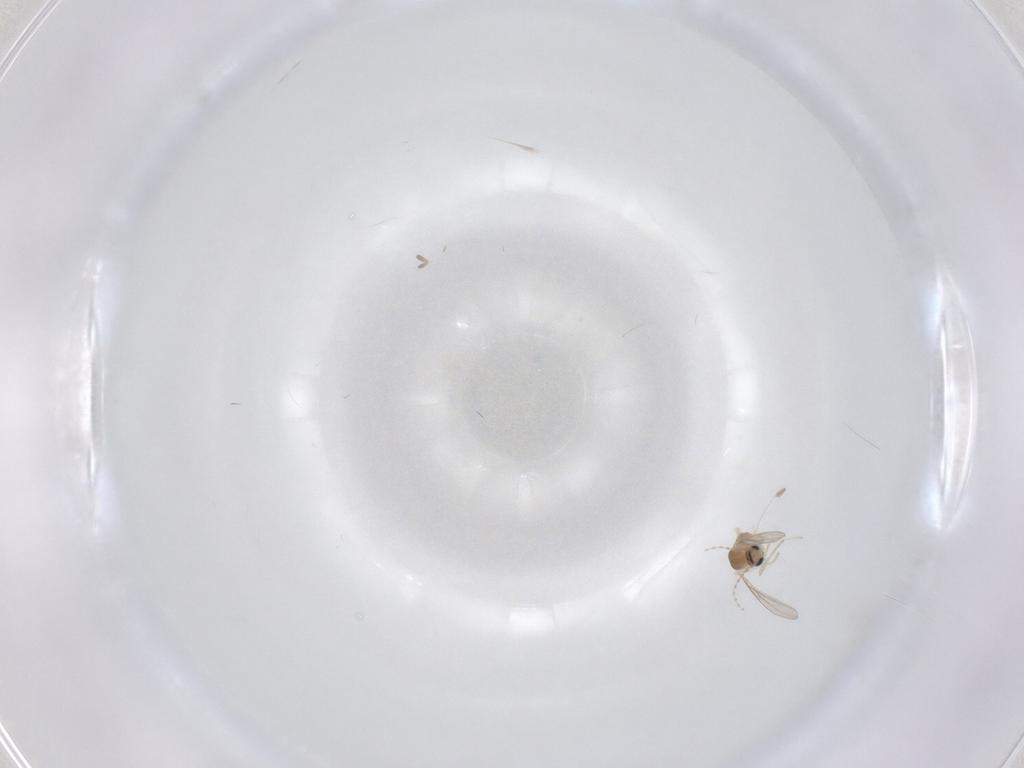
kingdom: Animalia
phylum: Arthropoda
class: Insecta
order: Diptera
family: Cecidomyiidae
